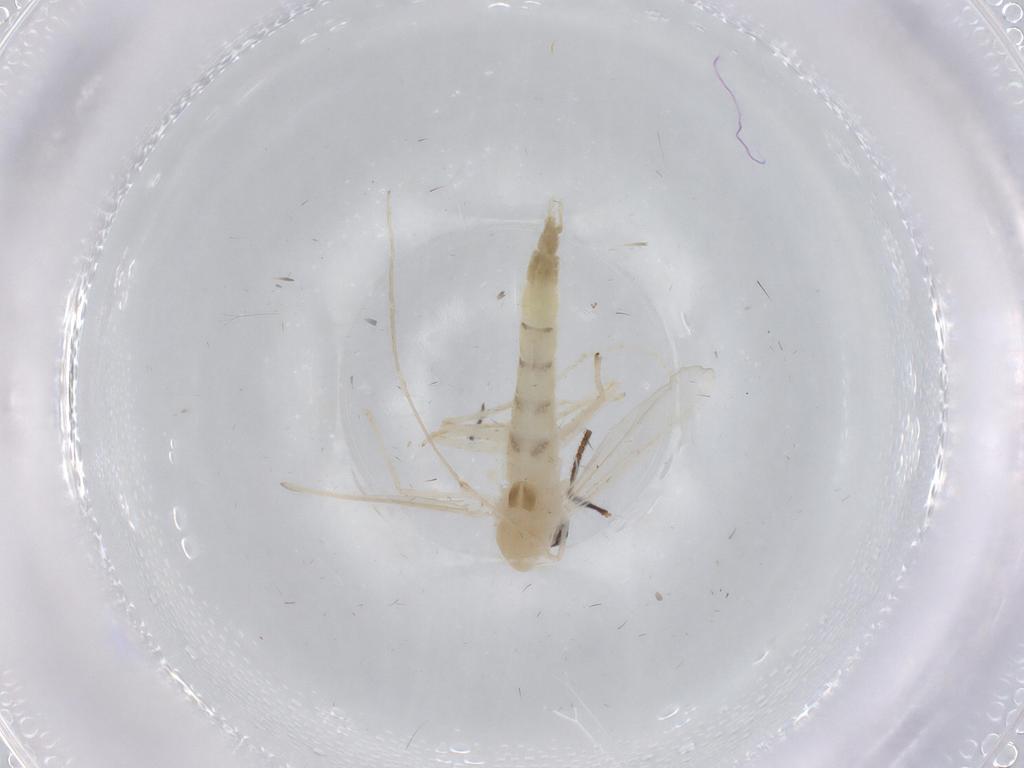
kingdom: Animalia
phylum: Arthropoda
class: Insecta
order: Diptera
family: Chironomidae
